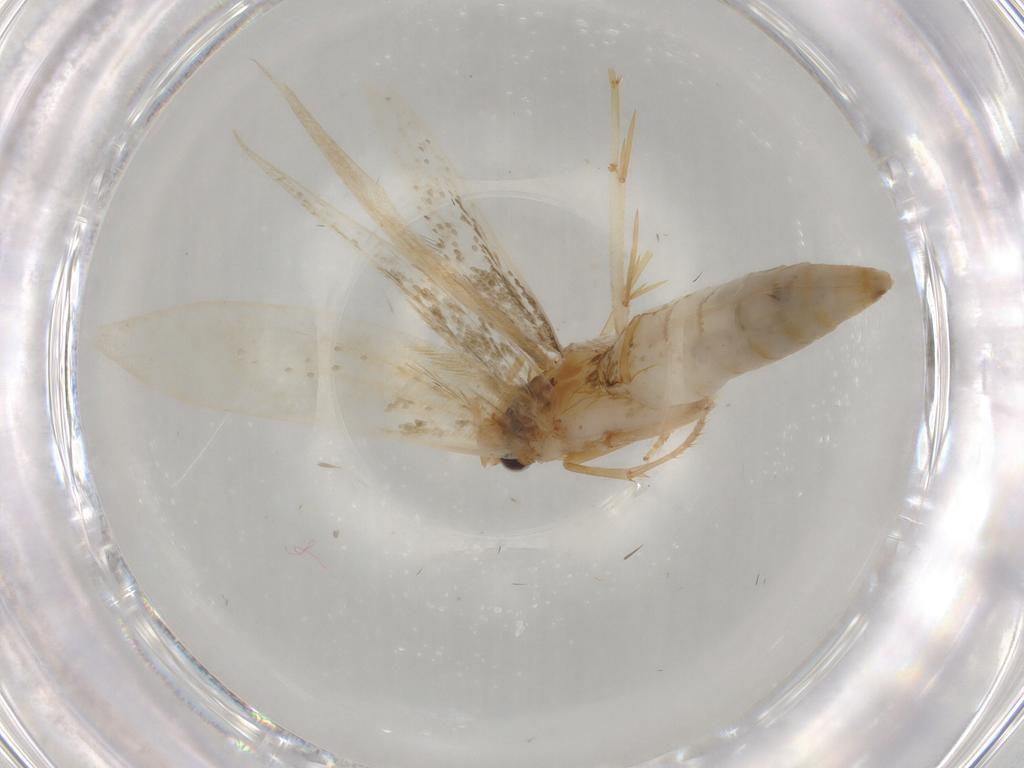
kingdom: Animalia
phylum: Arthropoda
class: Insecta
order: Lepidoptera
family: Tineidae
